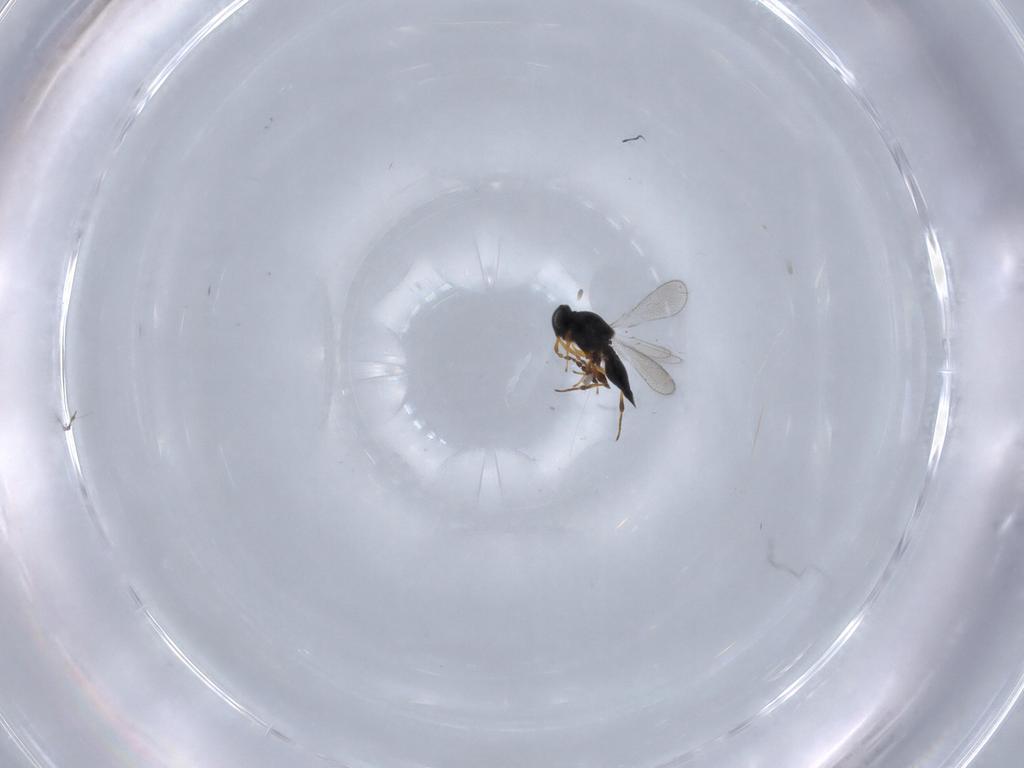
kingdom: Animalia
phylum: Arthropoda
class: Insecta
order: Hymenoptera
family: Platygastridae
